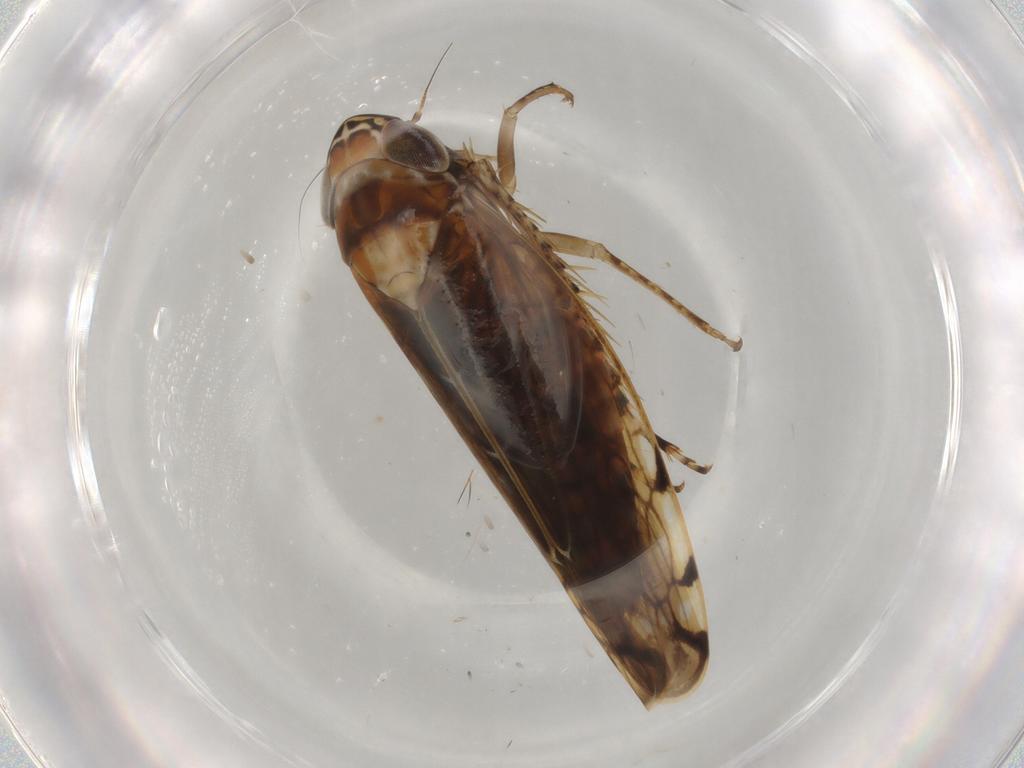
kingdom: Animalia
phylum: Arthropoda
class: Insecta
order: Hemiptera
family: Cicadellidae
